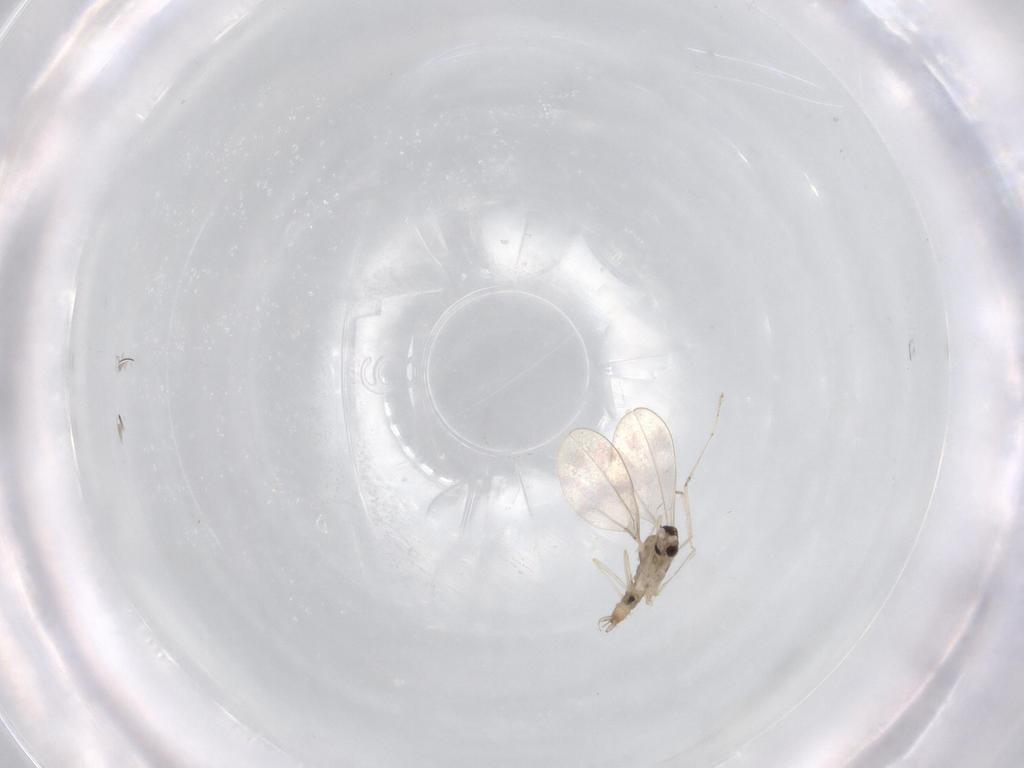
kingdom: Animalia
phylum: Arthropoda
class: Insecta
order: Diptera
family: Cecidomyiidae
